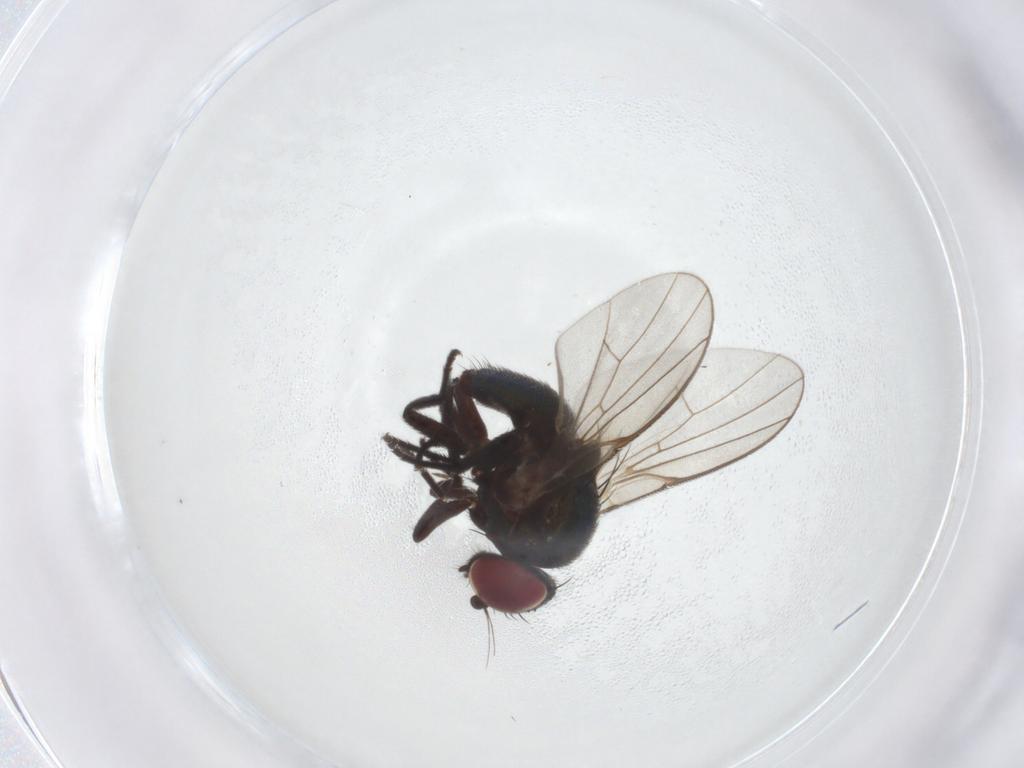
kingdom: Animalia
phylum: Arthropoda
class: Insecta
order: Diptera
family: Agromyzidae
